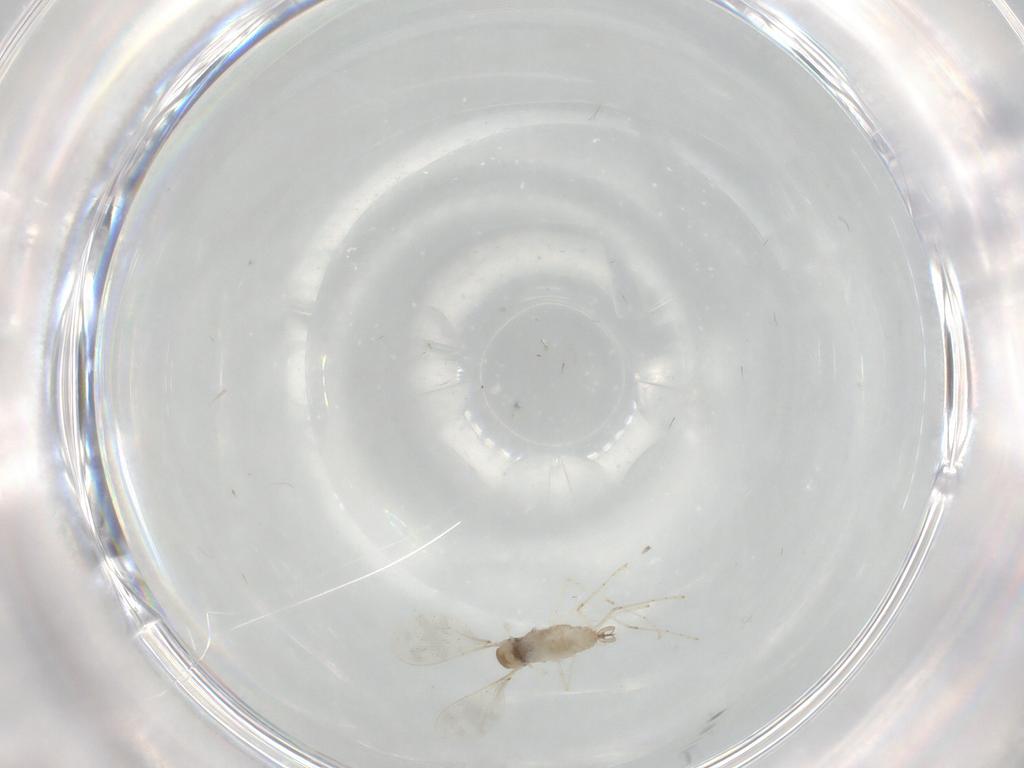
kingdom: Animalia
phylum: Arthropoda
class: Insecta
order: Diptera
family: Cecidomyiidae
